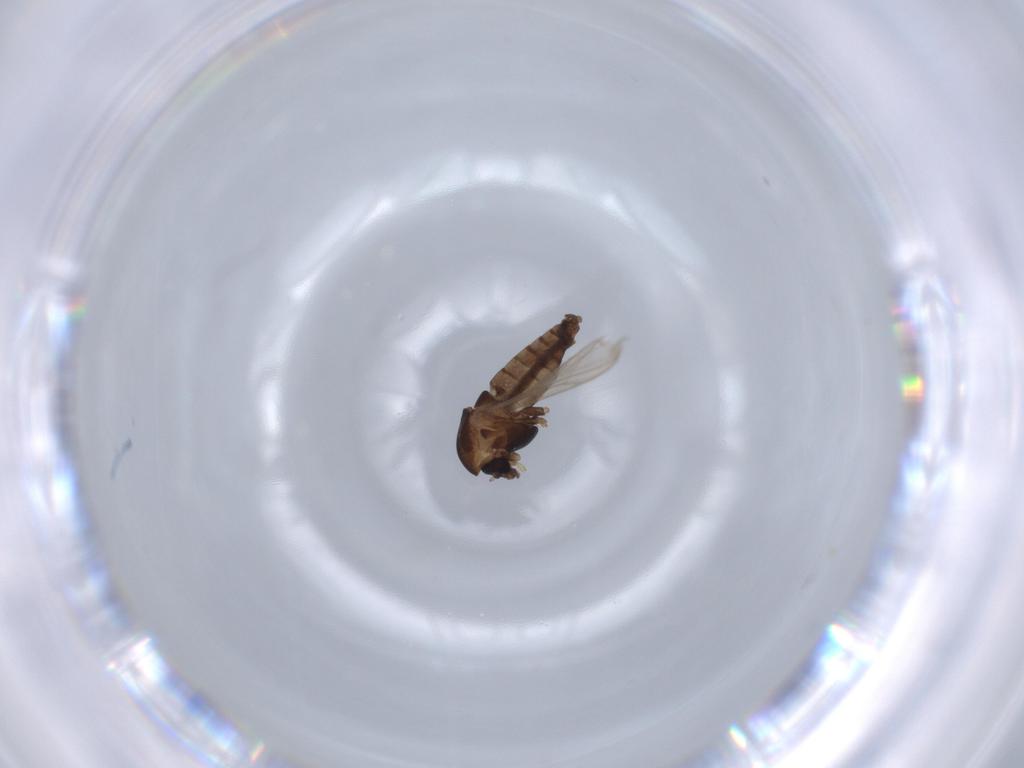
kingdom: Animalia
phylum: Arthropoda
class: Insecta
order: Diptera
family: Chironomidae
